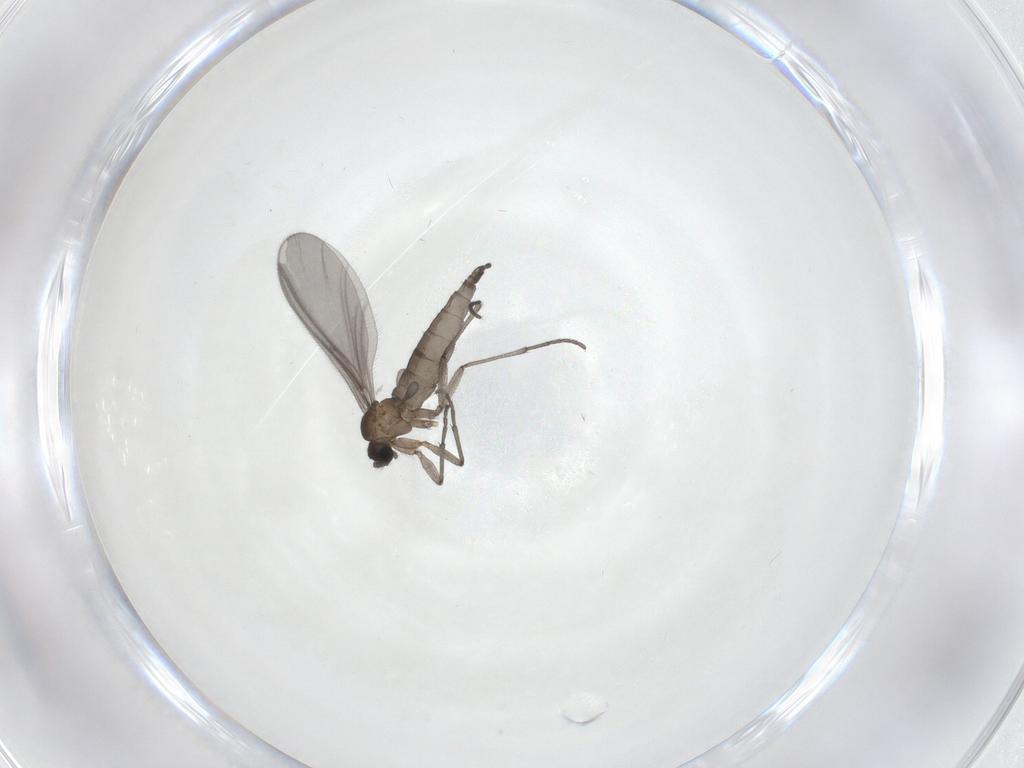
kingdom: Animalia
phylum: Arthropoda
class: Insecta
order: Diptera
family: Sciaridae
